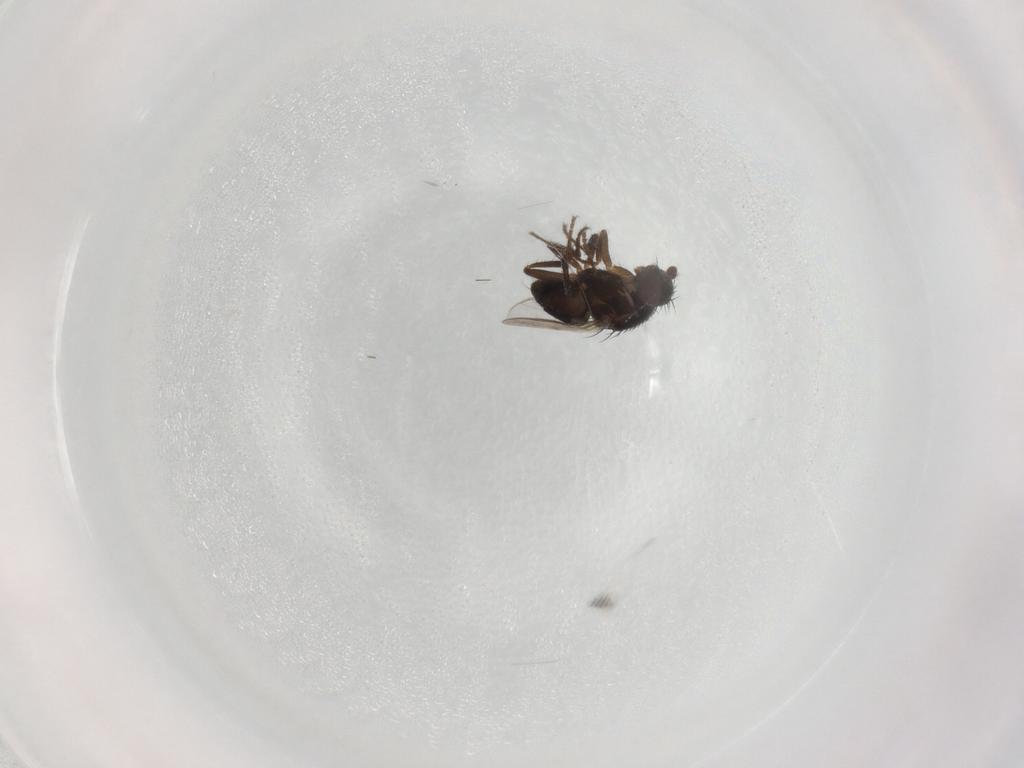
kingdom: Animalia
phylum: Arthropoda
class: Insecta
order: Diptera
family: Sphaeroceridae
